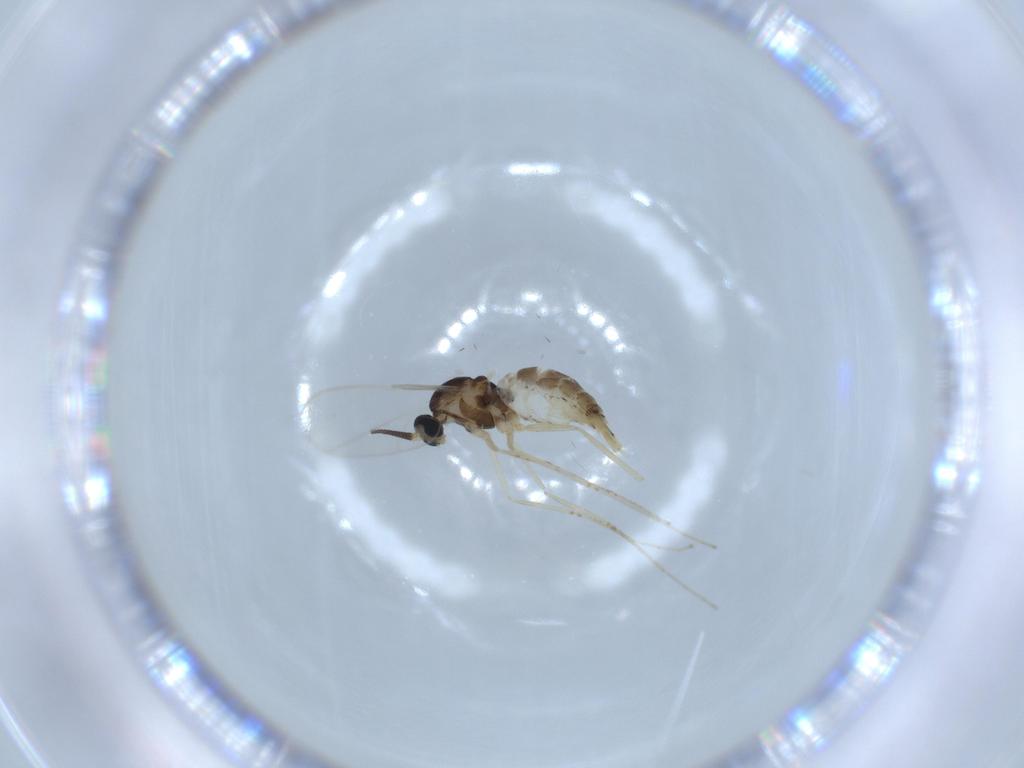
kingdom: Animalia
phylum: Arthropoda
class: Insecta
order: Diptera
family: Cecidomyiidae
